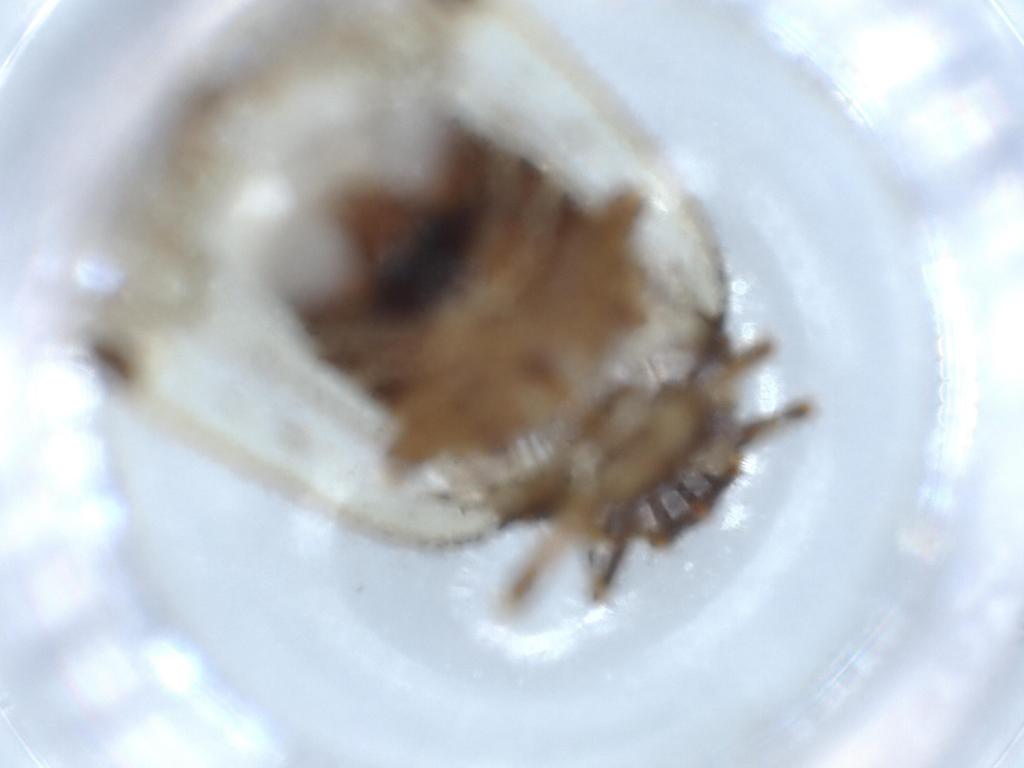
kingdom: Animalia
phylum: Arthropoda
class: Insecta
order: Hemiptera
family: Cixiidae
